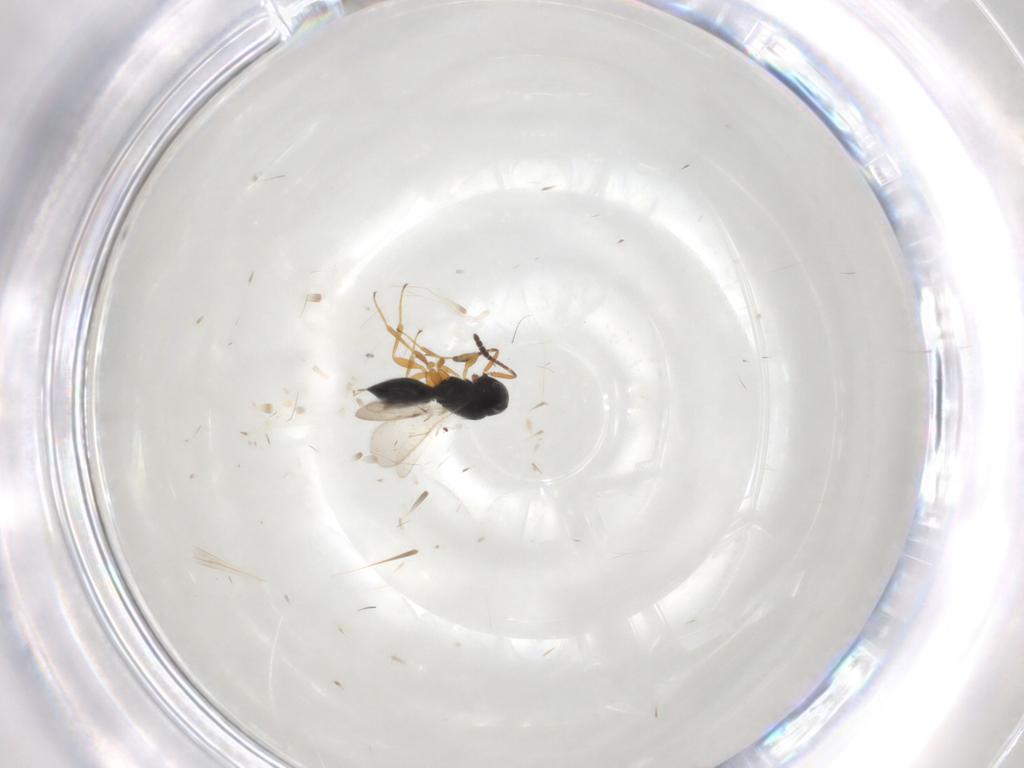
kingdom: Animalia
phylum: Arthropoda
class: Insecta
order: Hymenoptera
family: Scelionidae
